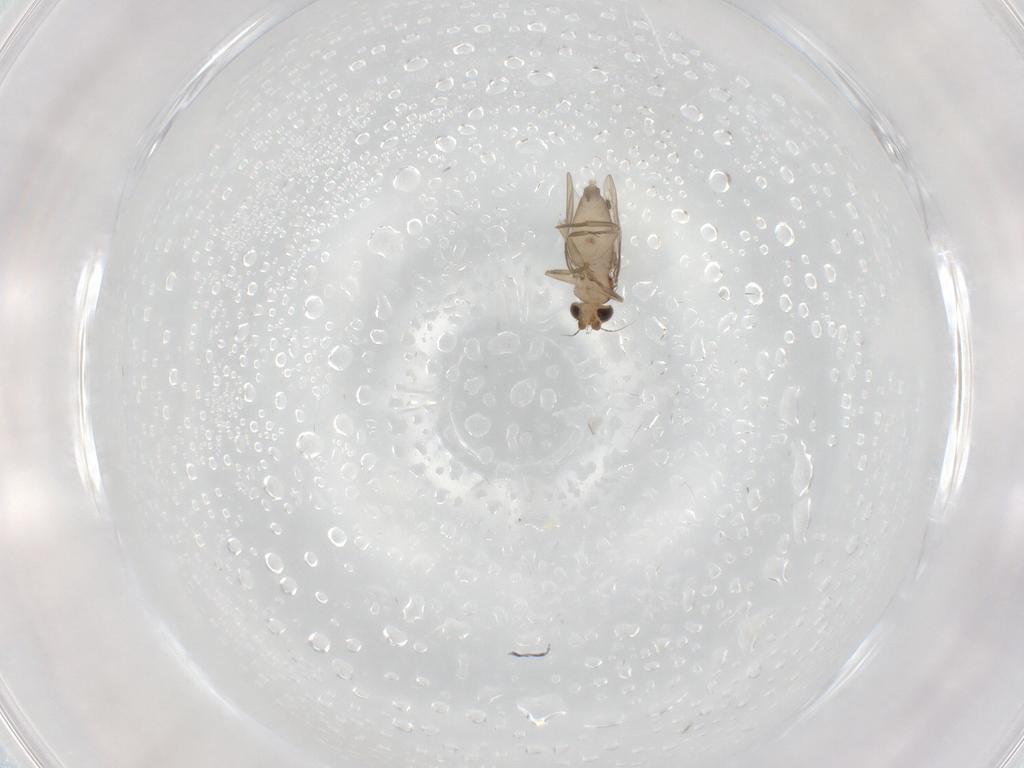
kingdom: Animalia
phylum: Arthropoda
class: Insecta
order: Diptera
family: Phoridae
